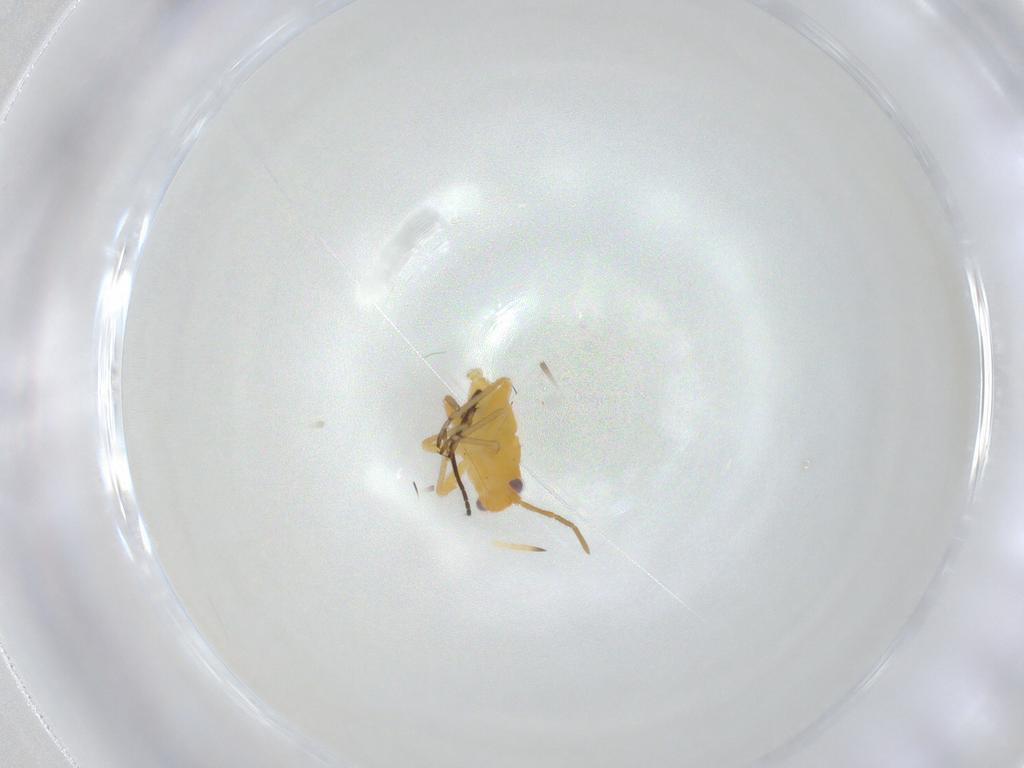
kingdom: Animalia
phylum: Arthropoda
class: Insecta
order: Hemiptera
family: Miridae
